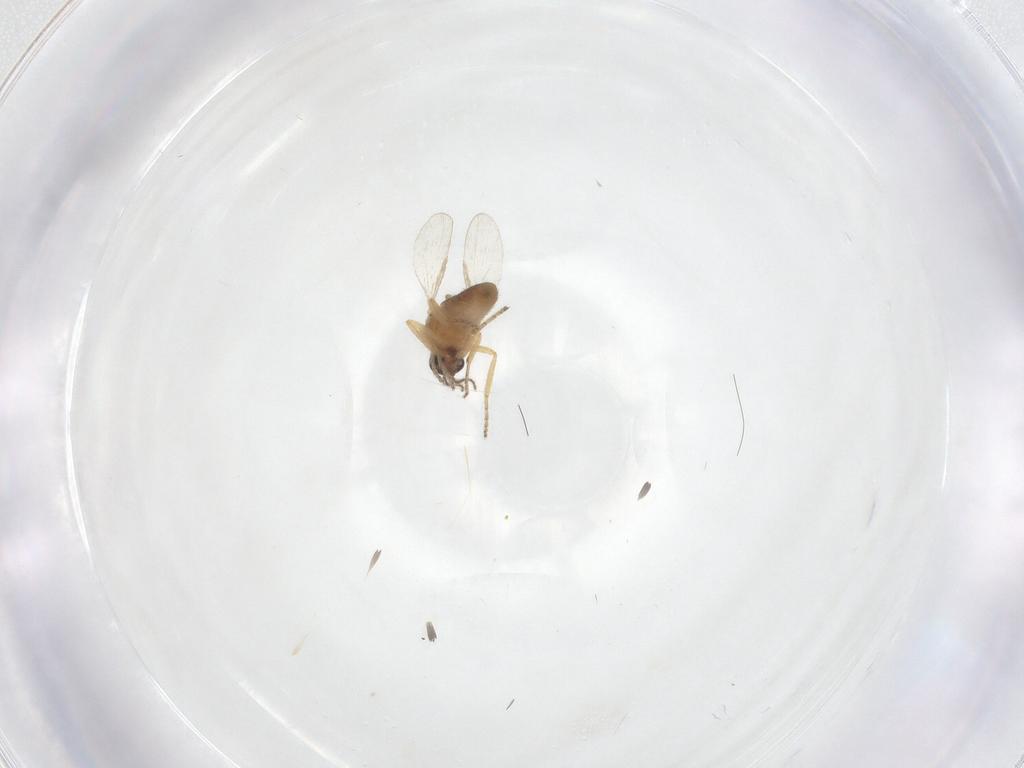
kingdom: Animalia
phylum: Arthropoda
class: Insecta
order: Diptera
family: Ceratopogonidae
